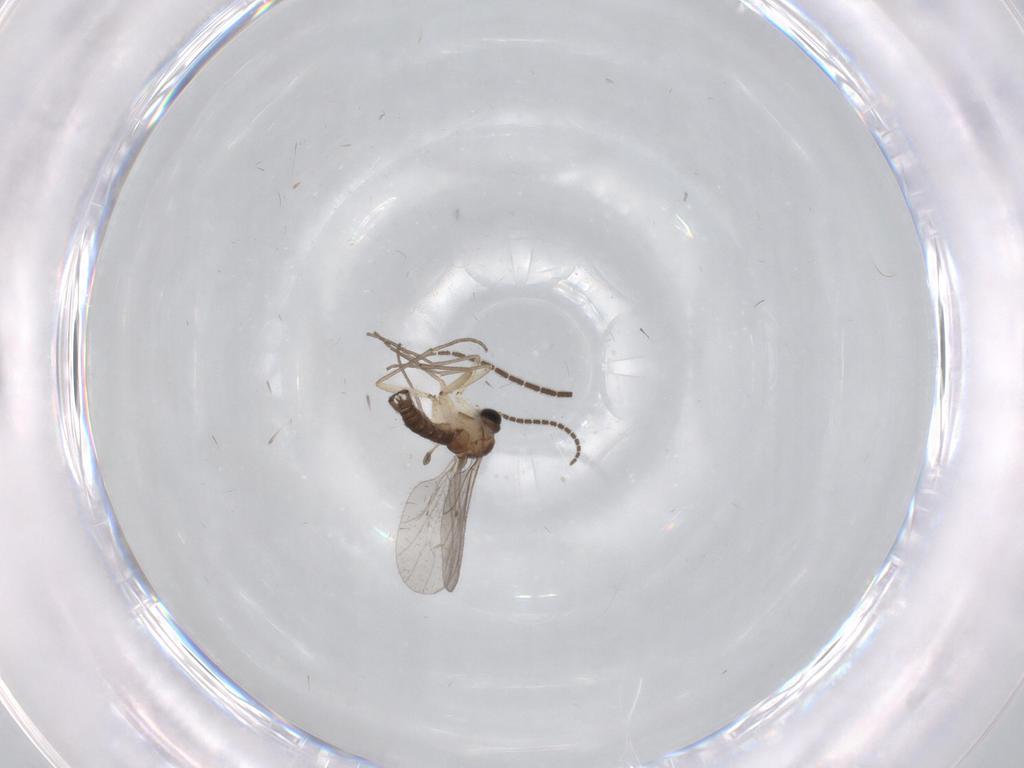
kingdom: Animalia
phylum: Arthropoda
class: Insecta
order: Diptera
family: Sciaridae
